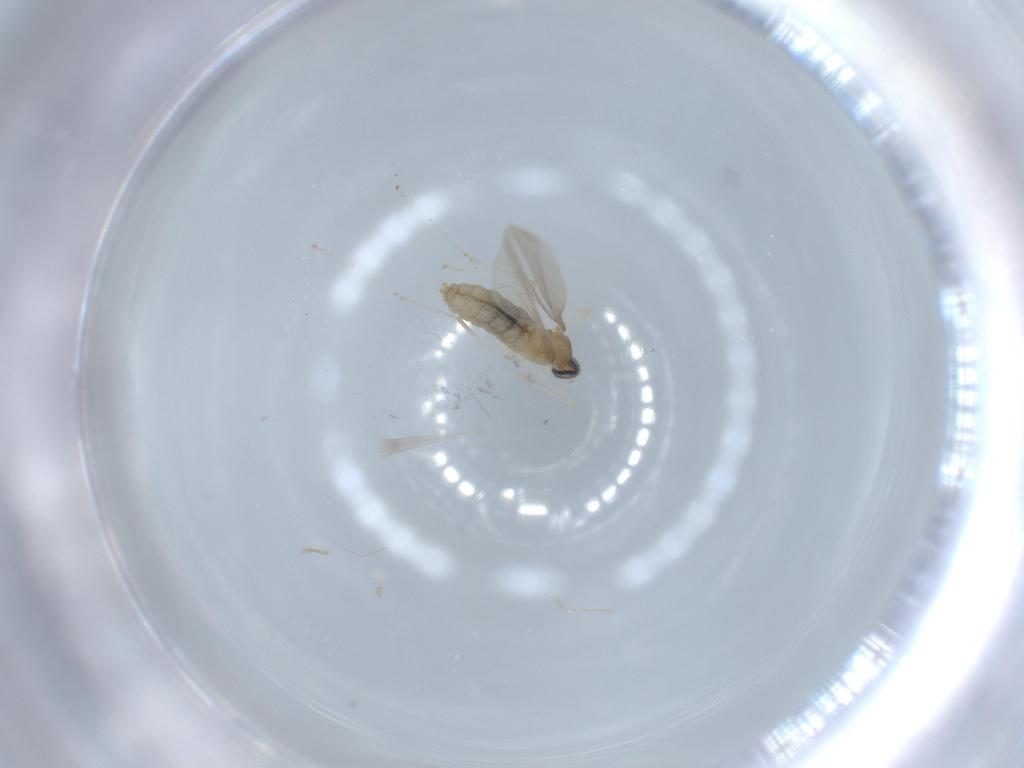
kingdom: Animalia
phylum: Arthropoda
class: Insecta
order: Diptera
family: Cecidomyiidae
